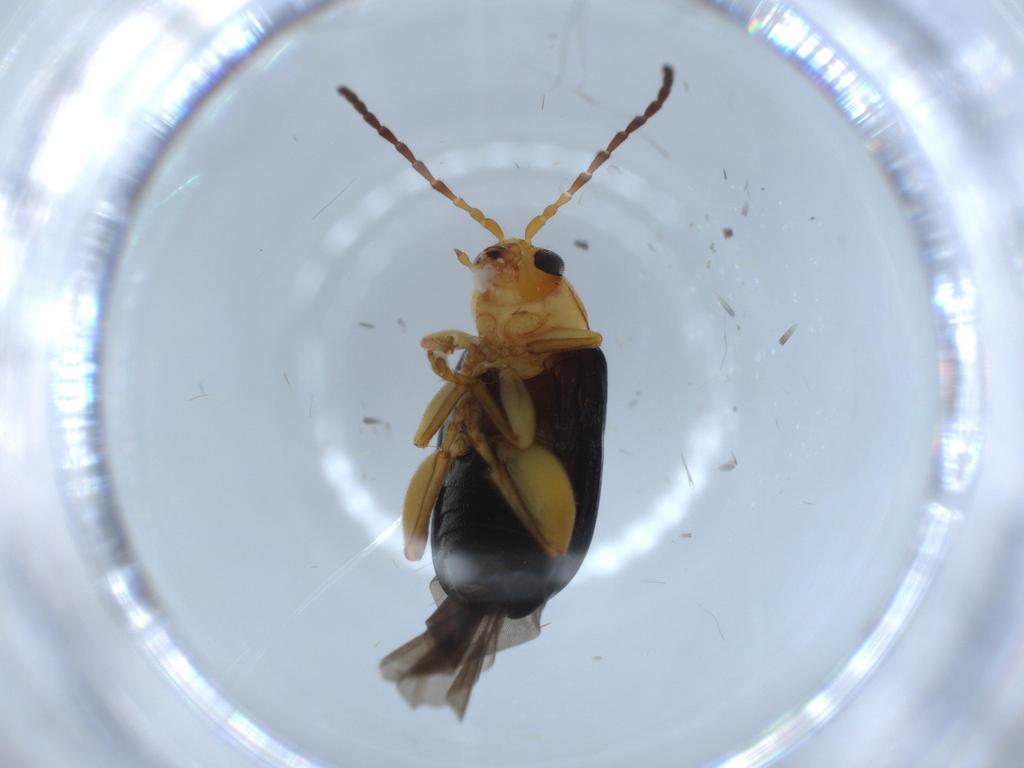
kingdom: Animalia
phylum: Arthropoda
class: Insecta
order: Coleoptera
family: Chrysomelidae
